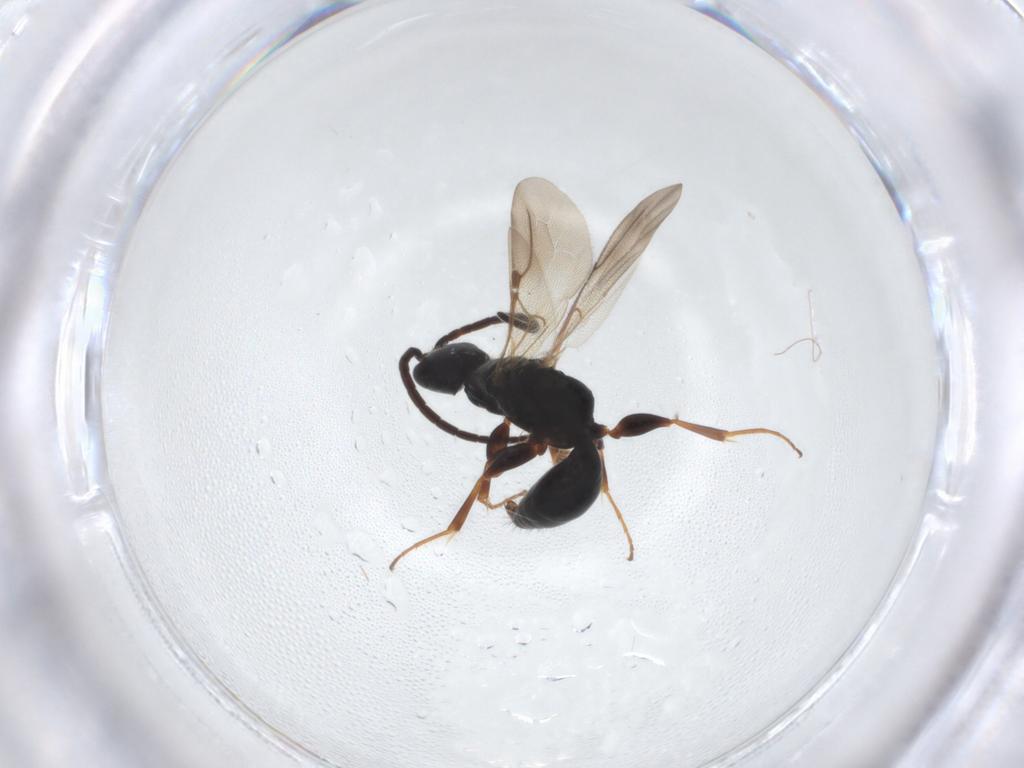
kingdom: Animalia
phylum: Arthropoda
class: Insecta
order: Hymenoptera
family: Bethylidae
